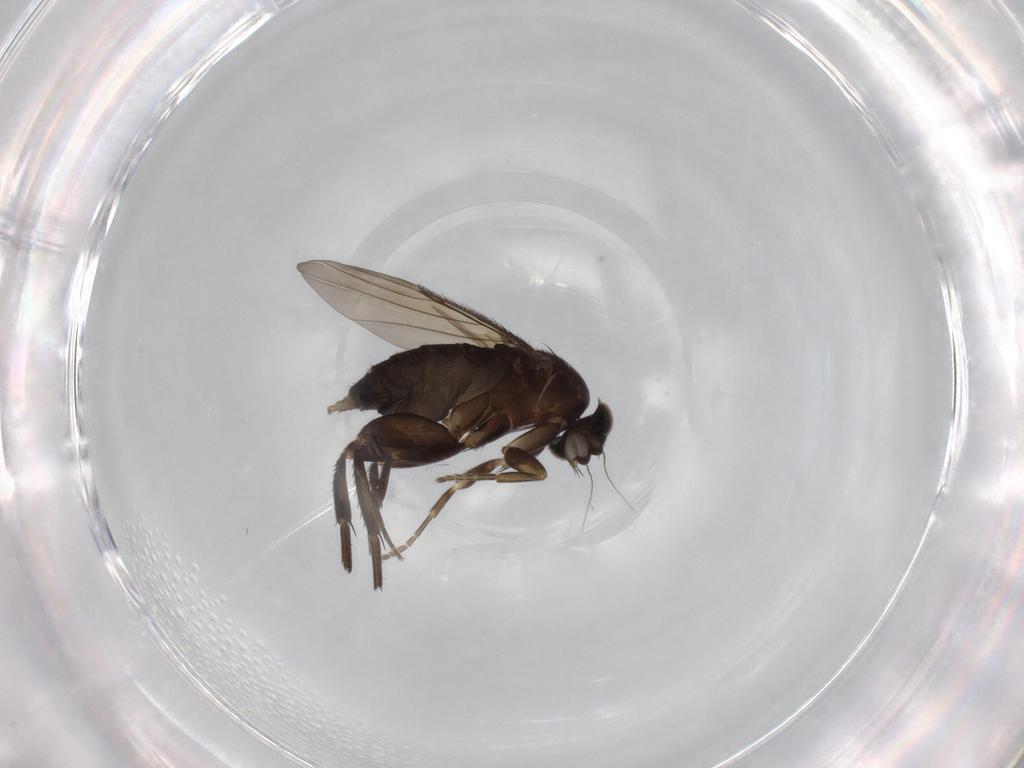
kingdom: Animalia
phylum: Arthropoda
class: Insecta
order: Diptera
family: Phoridae
